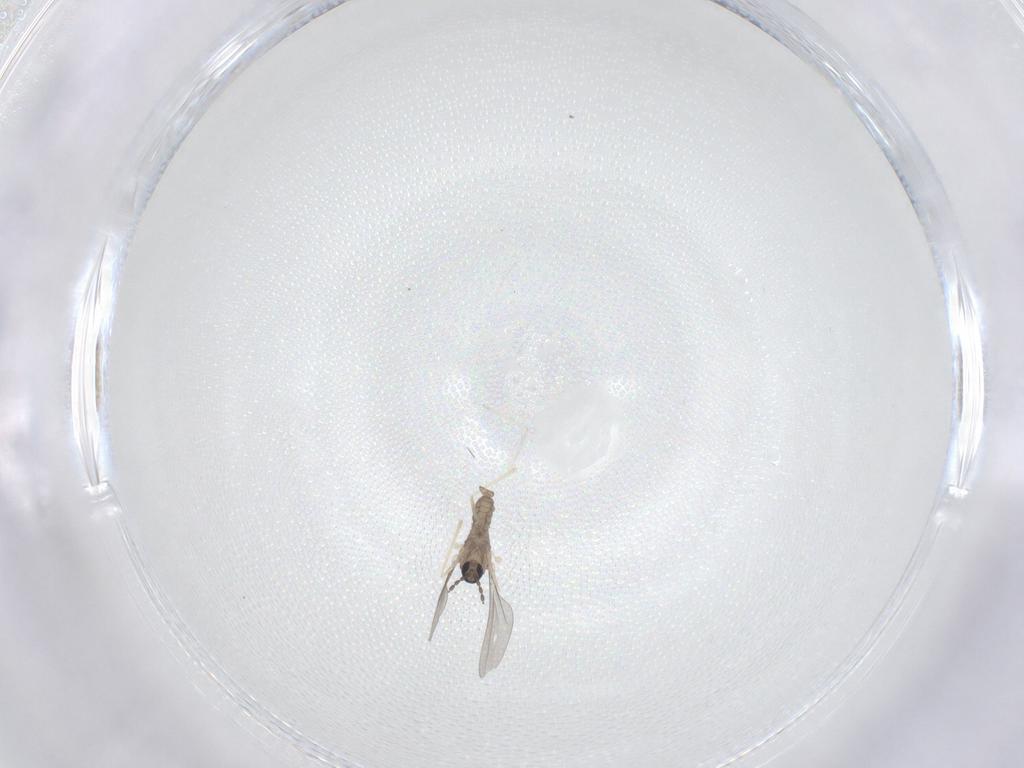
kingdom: Animalia
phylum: Arthropoda
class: Insecta
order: Diptera
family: Cecidomyiidae
